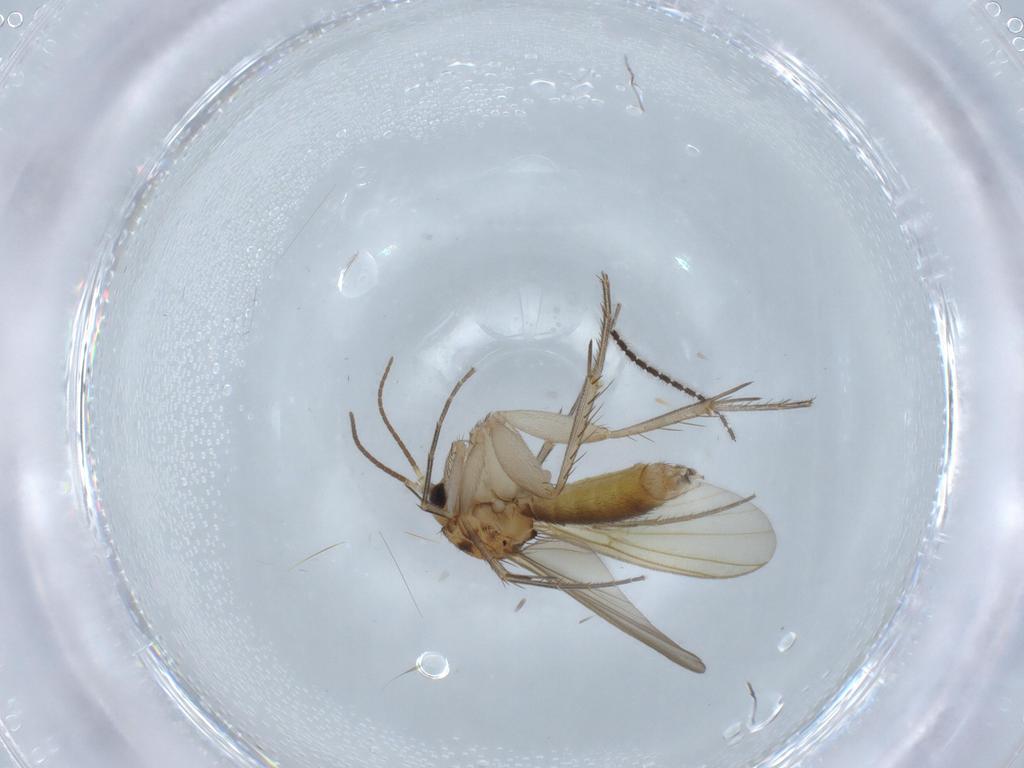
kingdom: Animalia
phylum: Arthropoda
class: Insecta
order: Diptera
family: Cecidomyiidae
